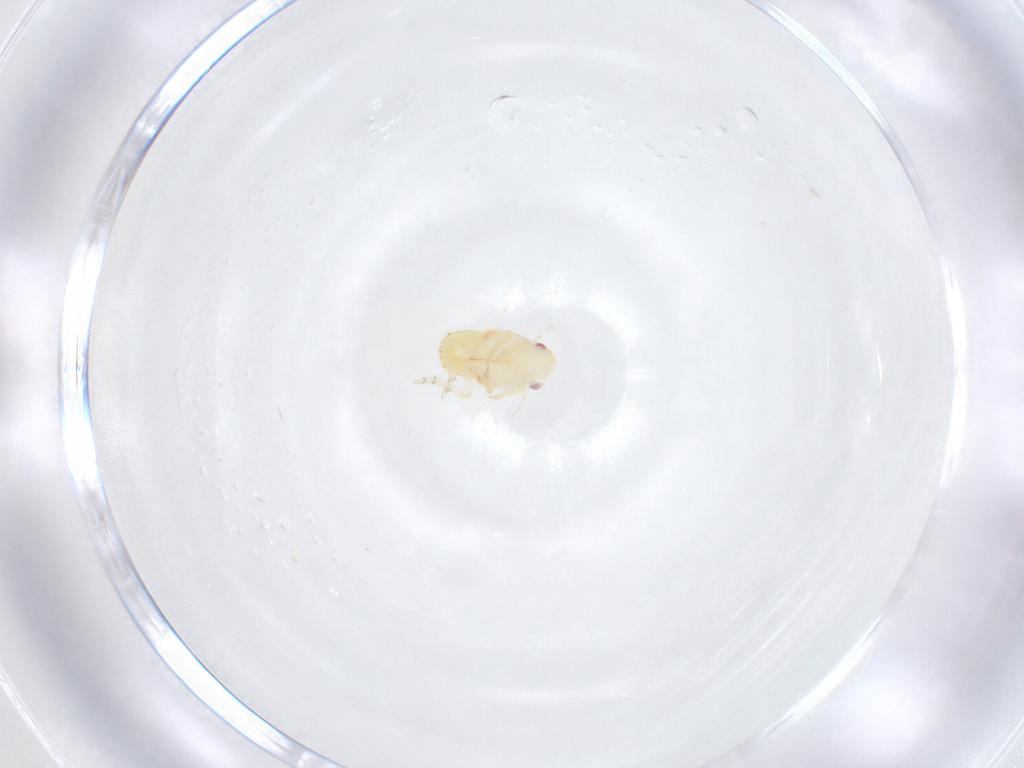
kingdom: Animalia
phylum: Arthropoda
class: Insecta
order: Hemiptera
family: Flatidae
